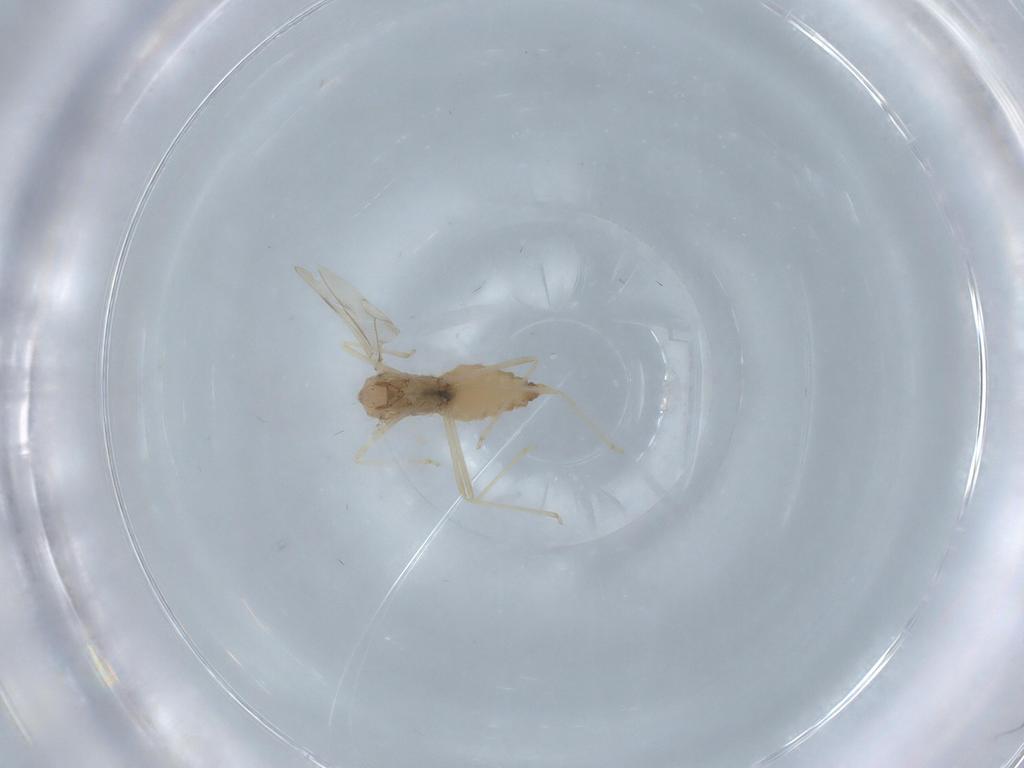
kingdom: Animalia
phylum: Arthropoda
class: Insecta
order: Diptera
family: Cecidomyiidae
